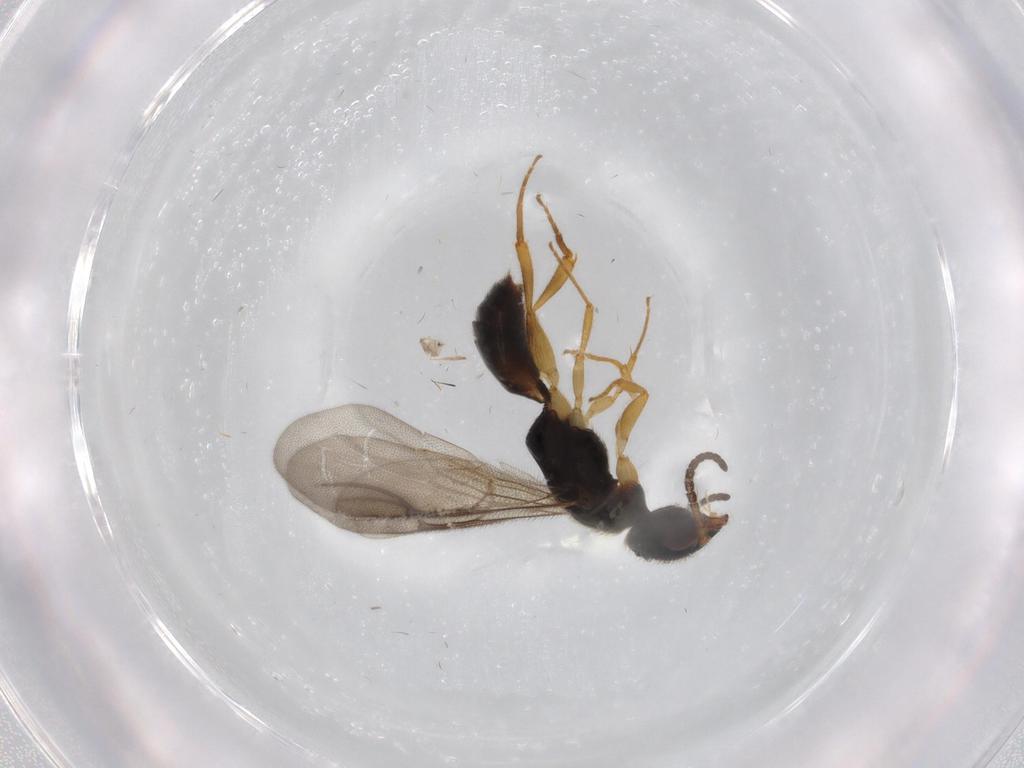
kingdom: Animalia
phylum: Arthropoda
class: Insecta
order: Hymenoptera
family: Bethylidae
